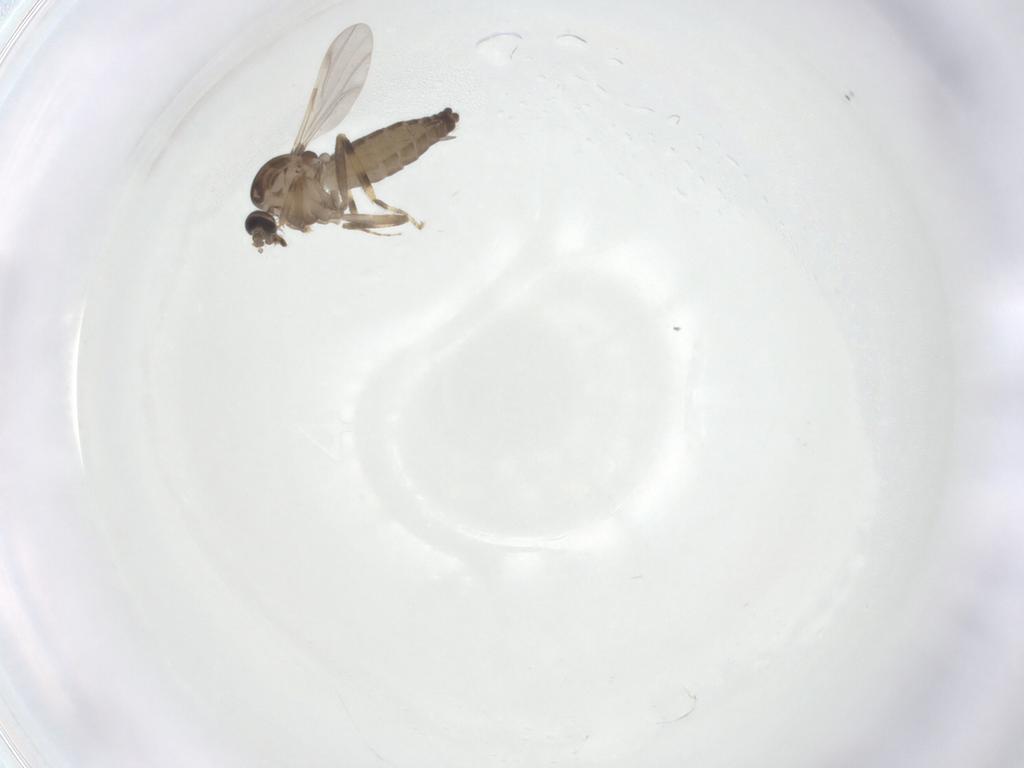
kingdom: Animalia
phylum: Arthropoda
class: Insecta
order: Diptera
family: Ceratopogonidae
